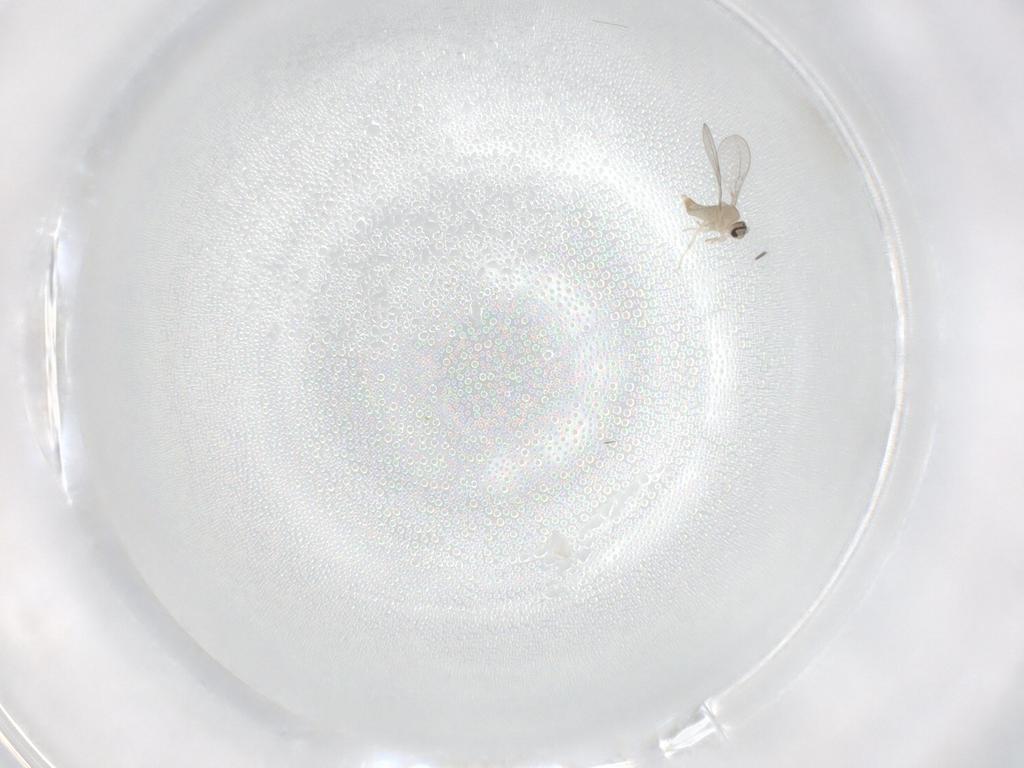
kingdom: Animalia
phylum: Arthropoda
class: Insecta
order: Diptera
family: Cecidomyiidae
